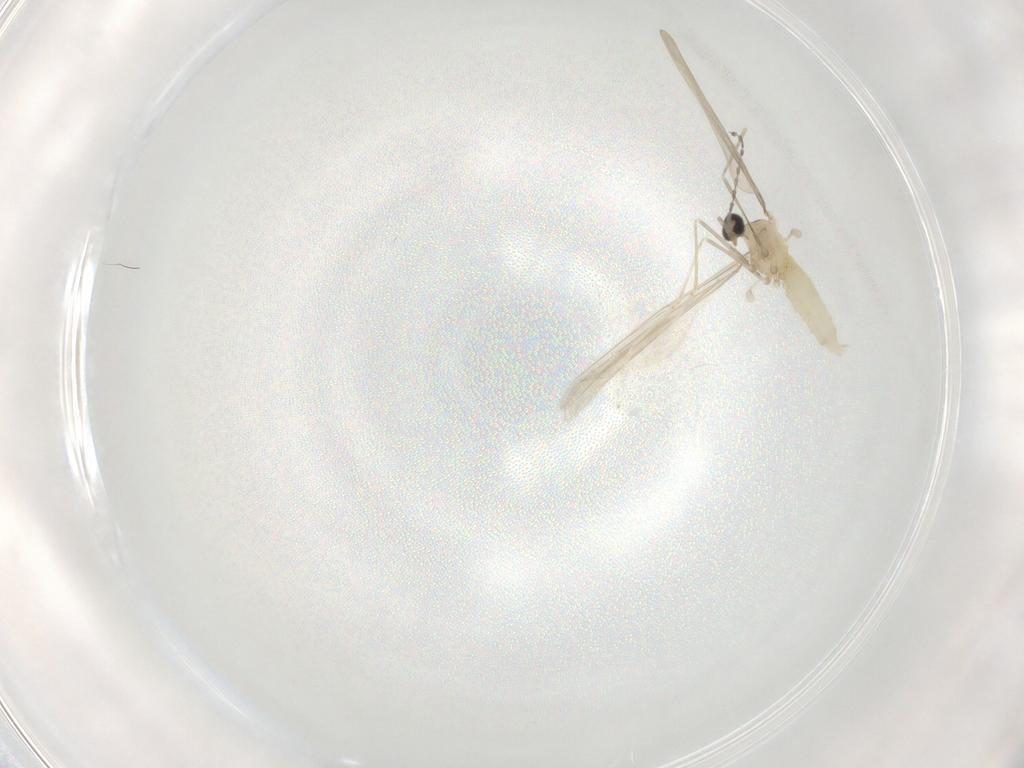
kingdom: Animalia
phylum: Arthropoda
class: Insecta
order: Diptera
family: Cecidomyiidae
